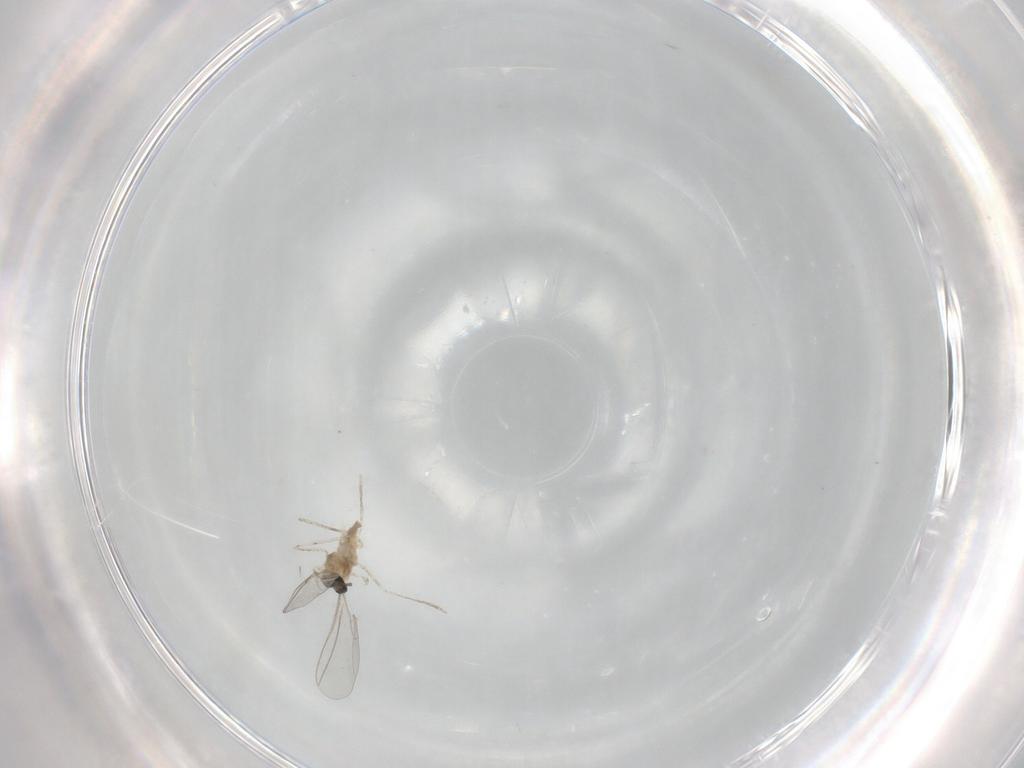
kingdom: Animalia
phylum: Arthropoda
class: Insecta
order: Diptera
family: Cecidomyiidae
